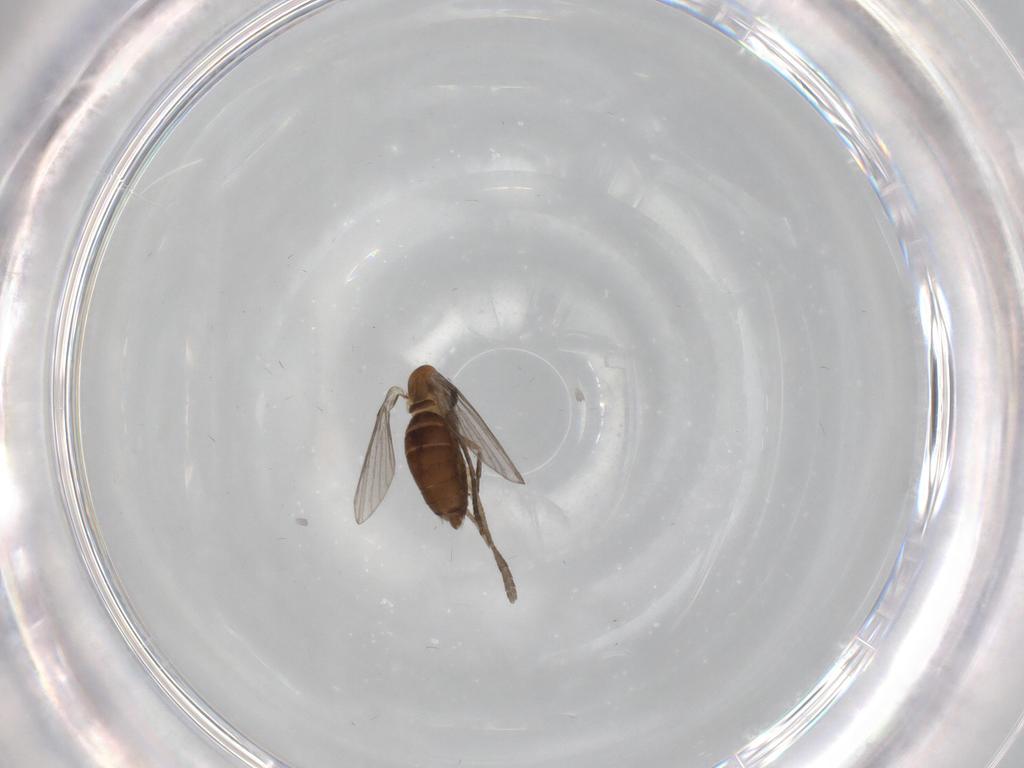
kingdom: Animalia
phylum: Arthropoda
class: Insecta
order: Diptera
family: Psychodidae
